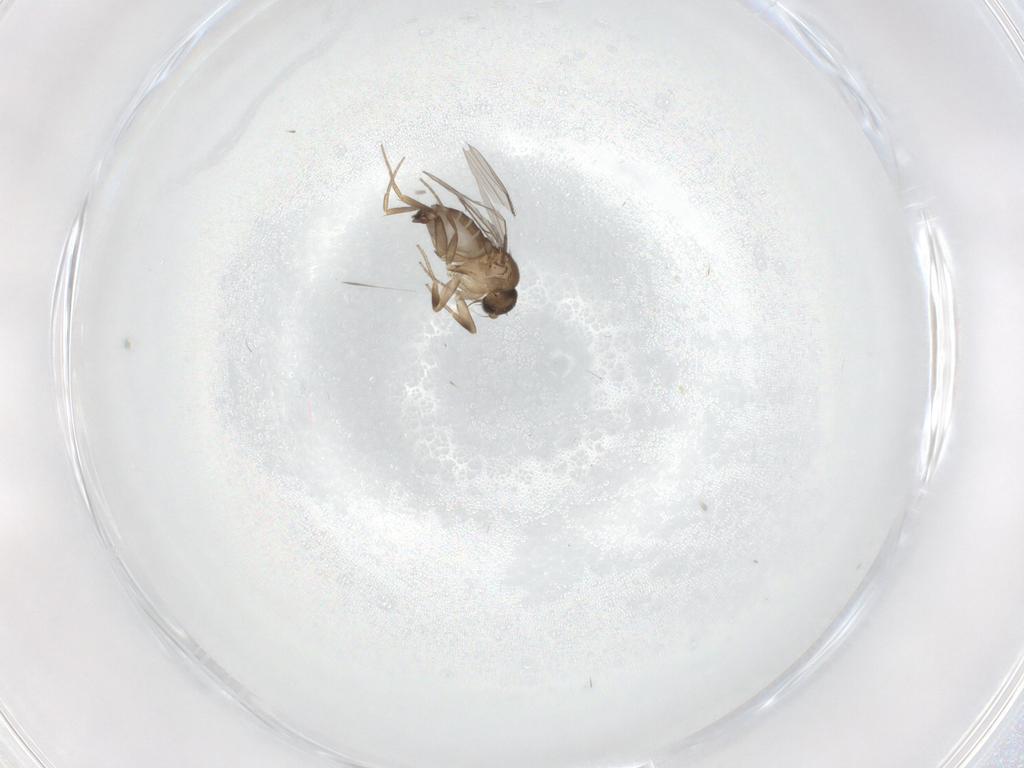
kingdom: Animalia
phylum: Arthropoda
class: Insecta
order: Diptera
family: Phoridae
